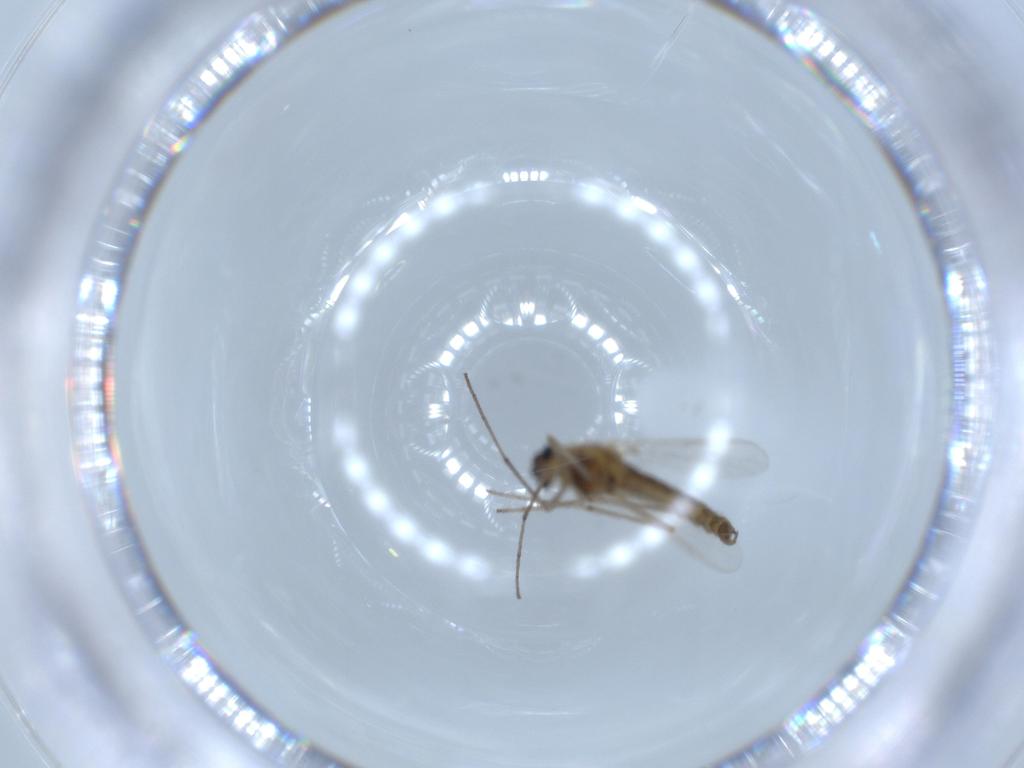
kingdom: Animalia
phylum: Arthropoda
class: Insecta
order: Diptera
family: Chironomidae
